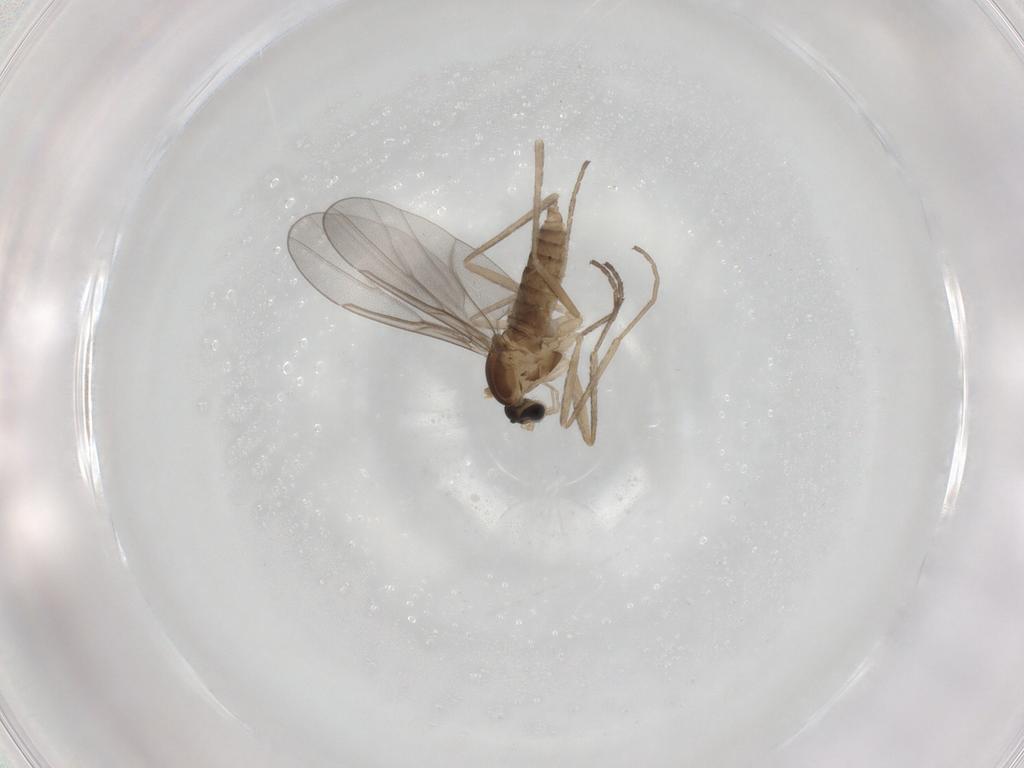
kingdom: Animalia
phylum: Arthropoda
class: Insecta
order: Diptera
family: Cecidomyiidae
